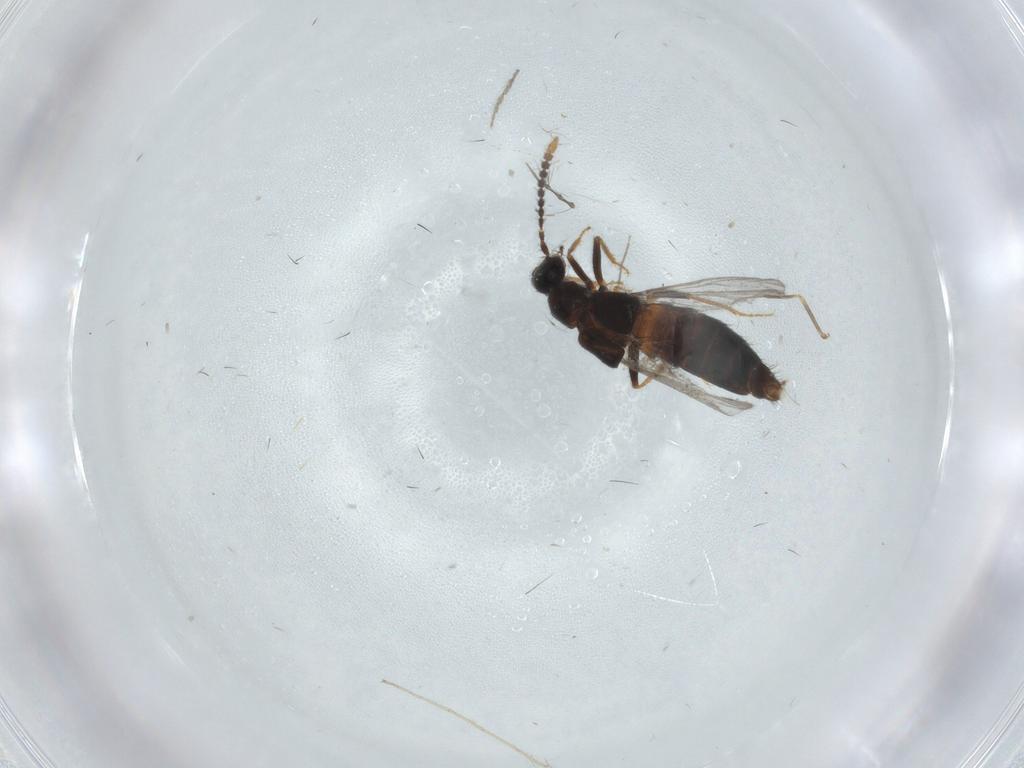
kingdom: Animalia
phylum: Arthropoda
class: Insecta
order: Coleoptera
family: Staphylinidae
